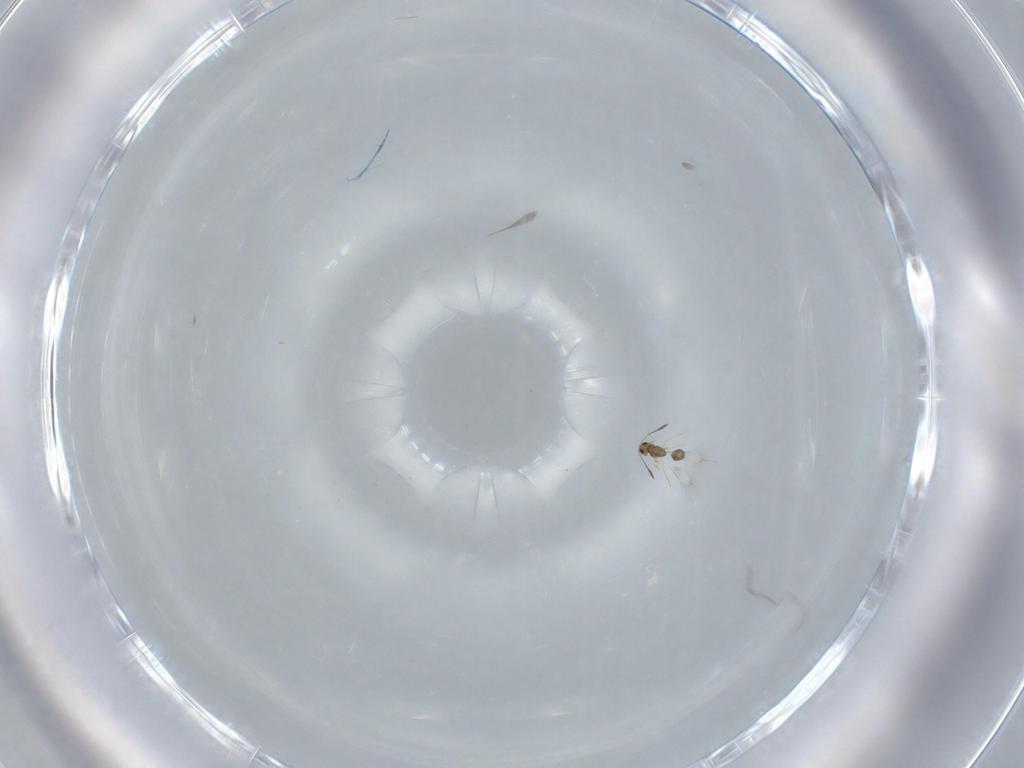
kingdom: Animalia
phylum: Arthropoda
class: Insecta
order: Hymenoptera
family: Mymarommatidae
